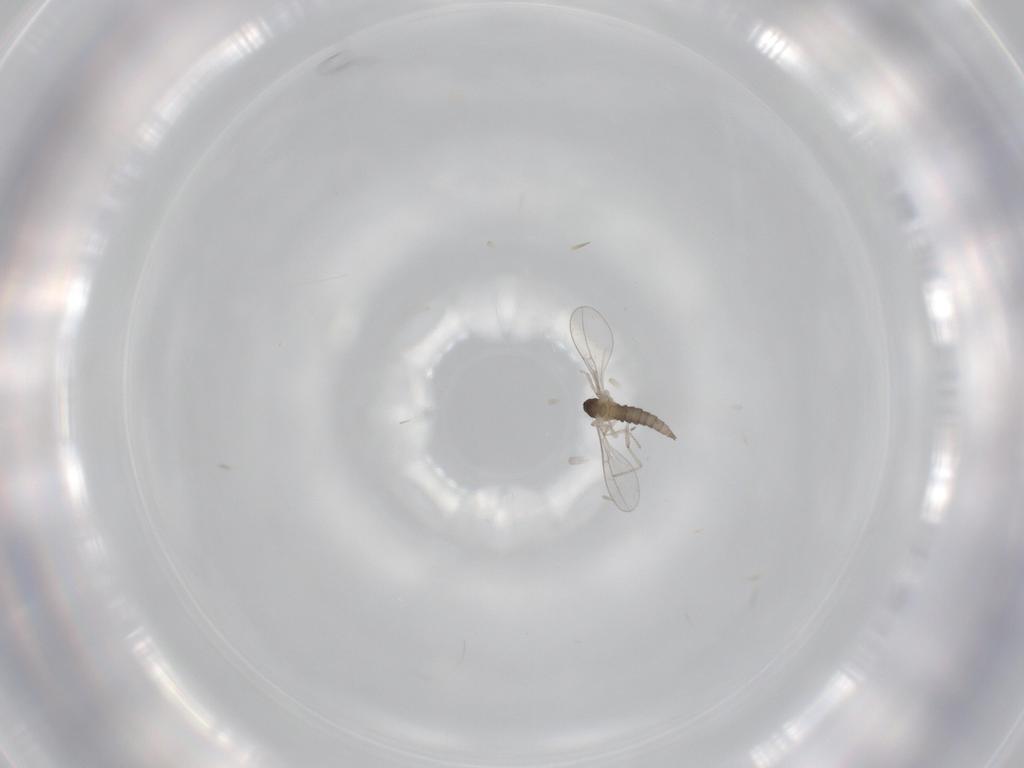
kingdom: Animalia
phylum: Arthropoda
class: Insecta
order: Diptera
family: Cecidomyiidae
